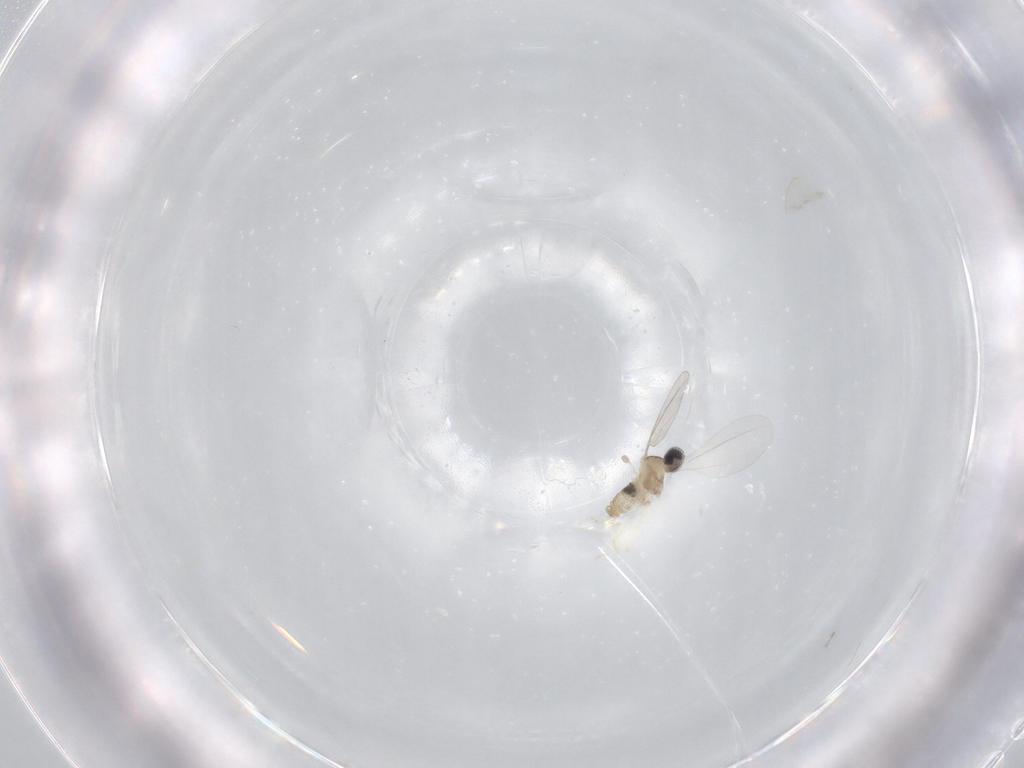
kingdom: Animalia
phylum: Arthropoda
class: Insecta
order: Diptera
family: Cecidomyiidae
